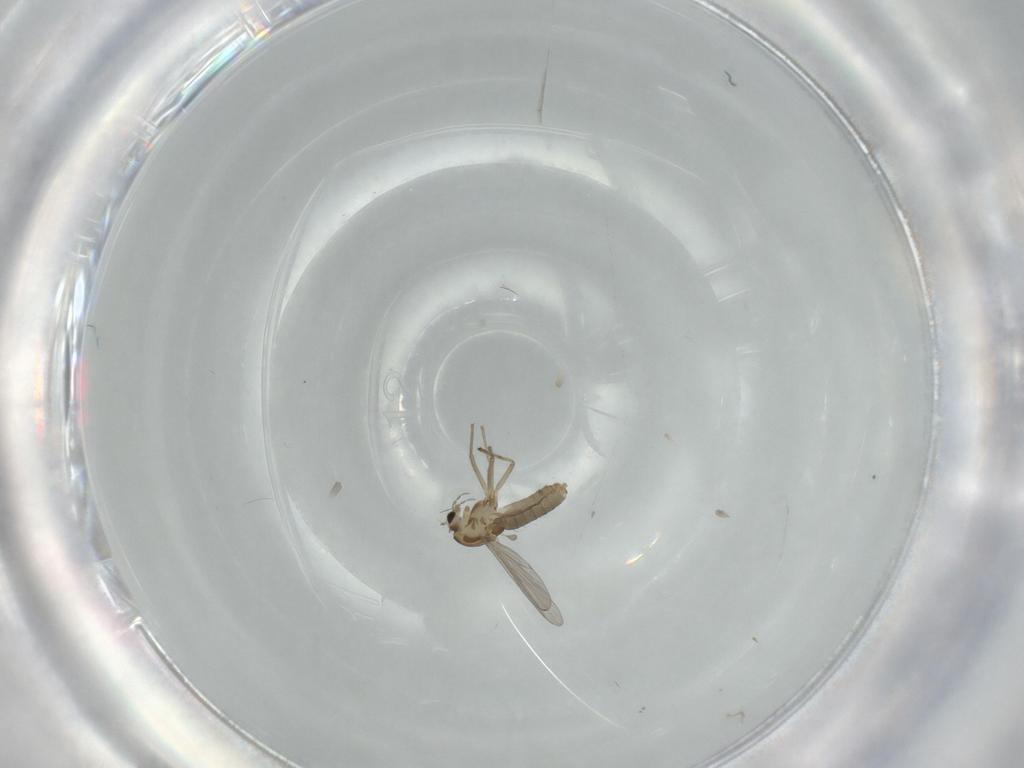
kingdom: Animalia
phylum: Arthropoda
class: Insecta
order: Diptera
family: Chironomidae
